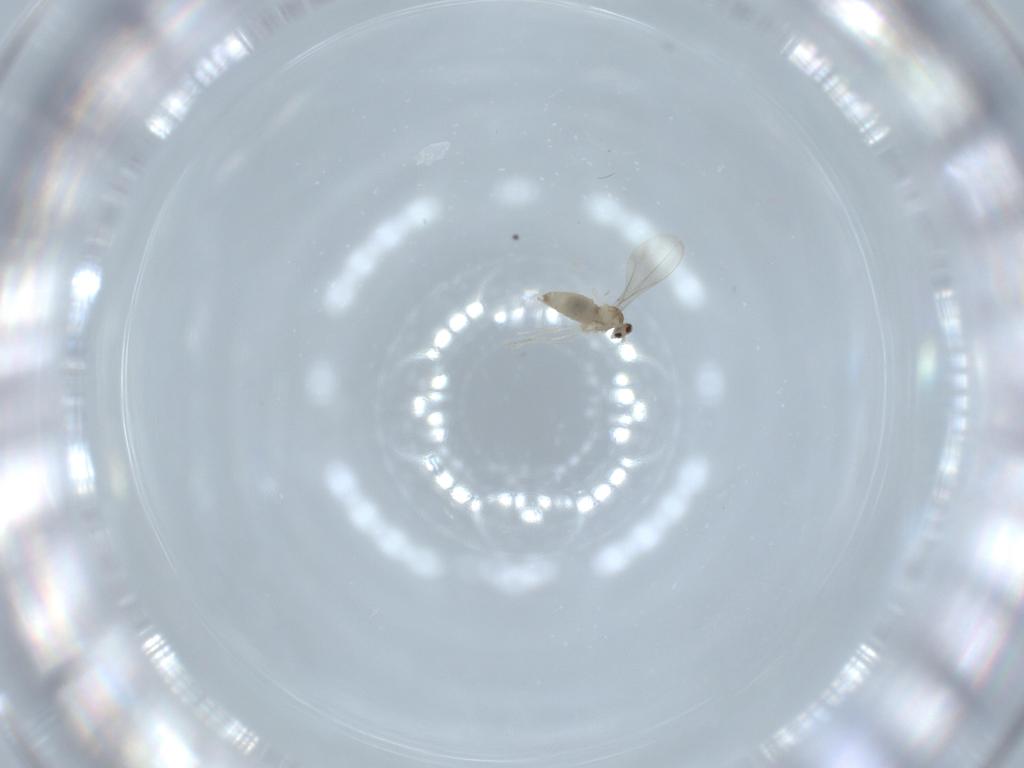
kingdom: Animalia
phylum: Arthropoda
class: Insecta
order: Diptera
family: Cecidomyiidae
